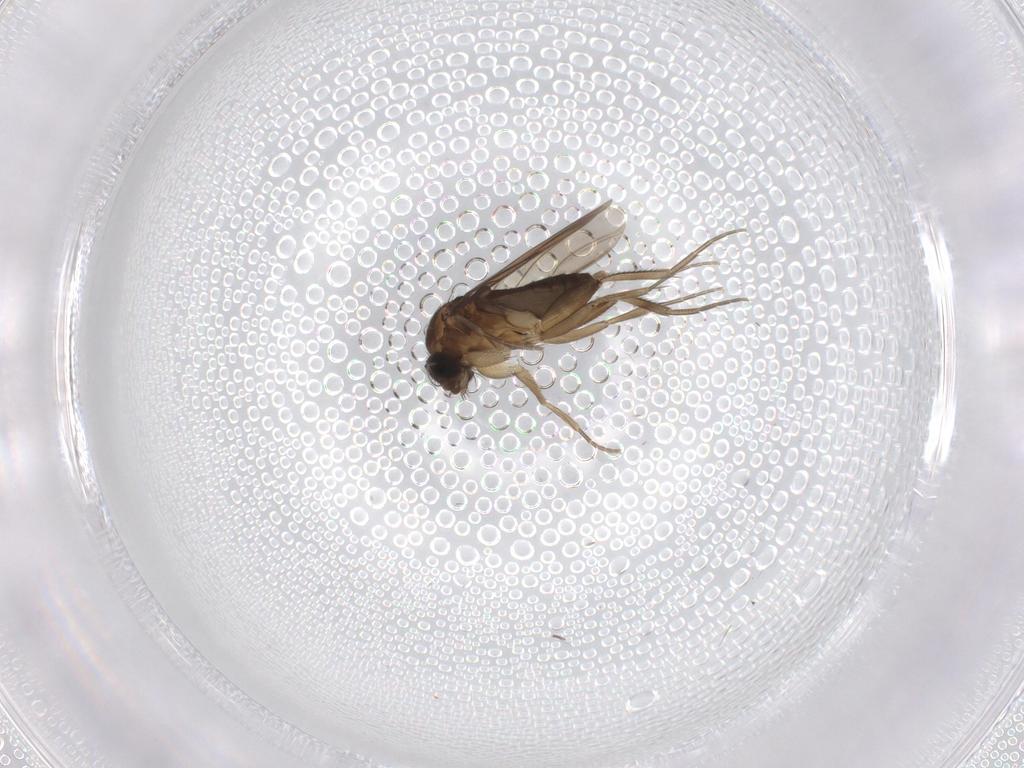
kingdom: Animalia
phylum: Arthropoda
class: Insecta
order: Diptera
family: Phoridae
